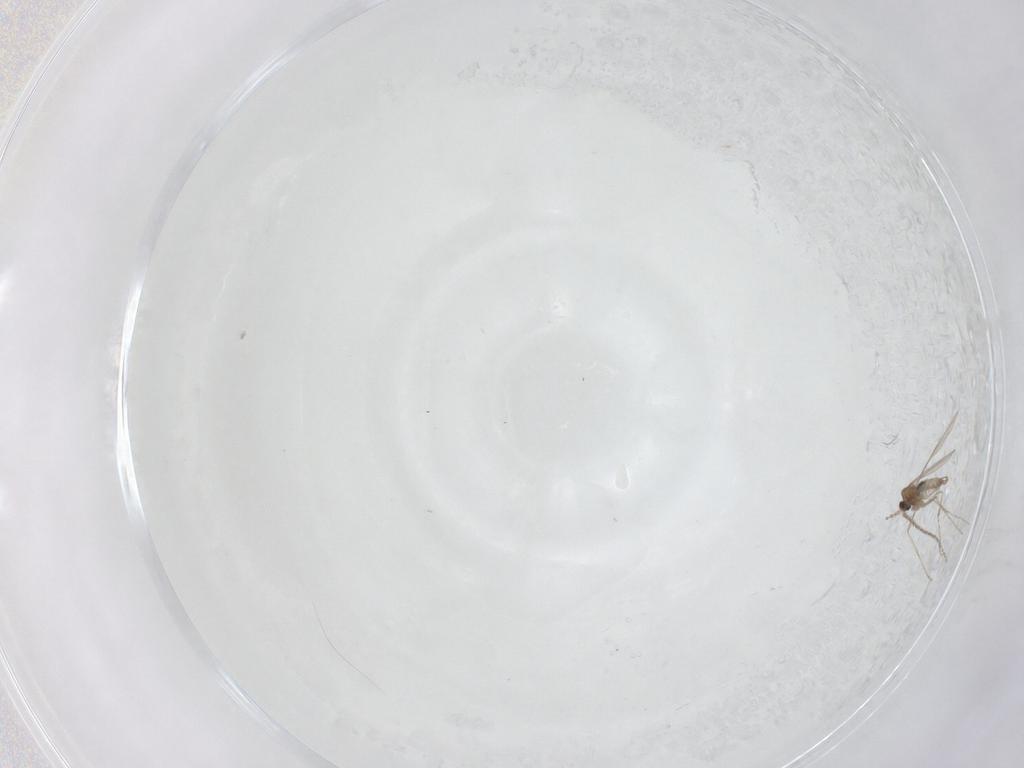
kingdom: Animalia
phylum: Arthropoda
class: Insecta
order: Diptera
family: Cecidomyiidae
